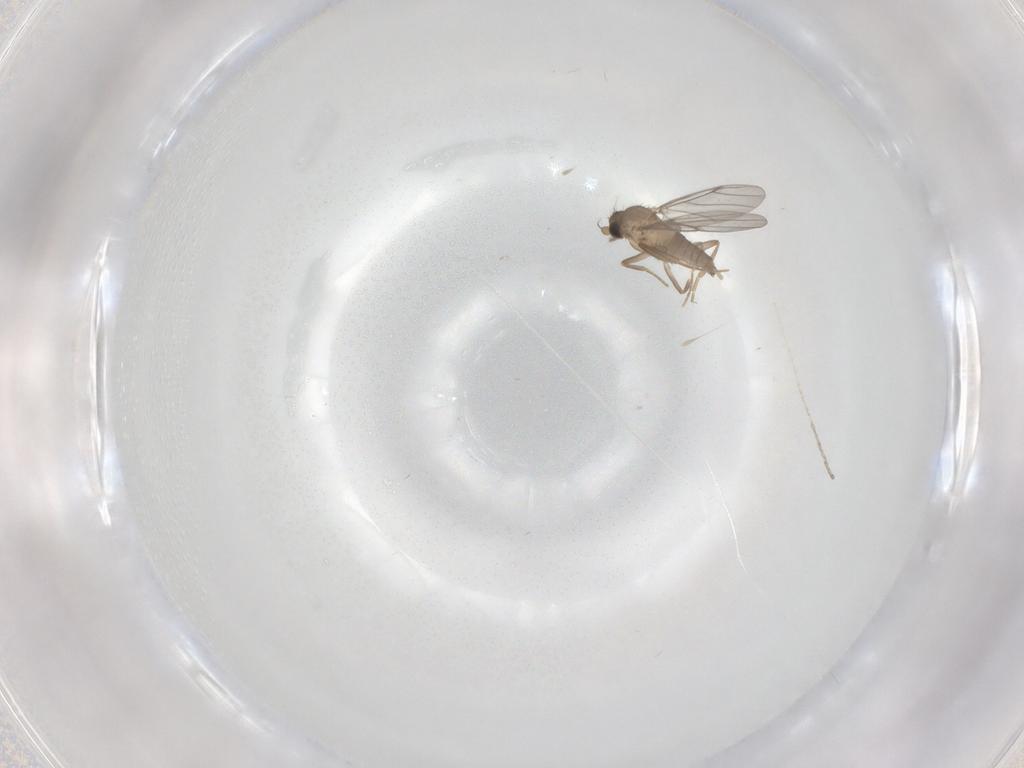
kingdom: Animalia
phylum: Arthropoda
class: Insecta
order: Diptera
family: Cecidomyiidae
